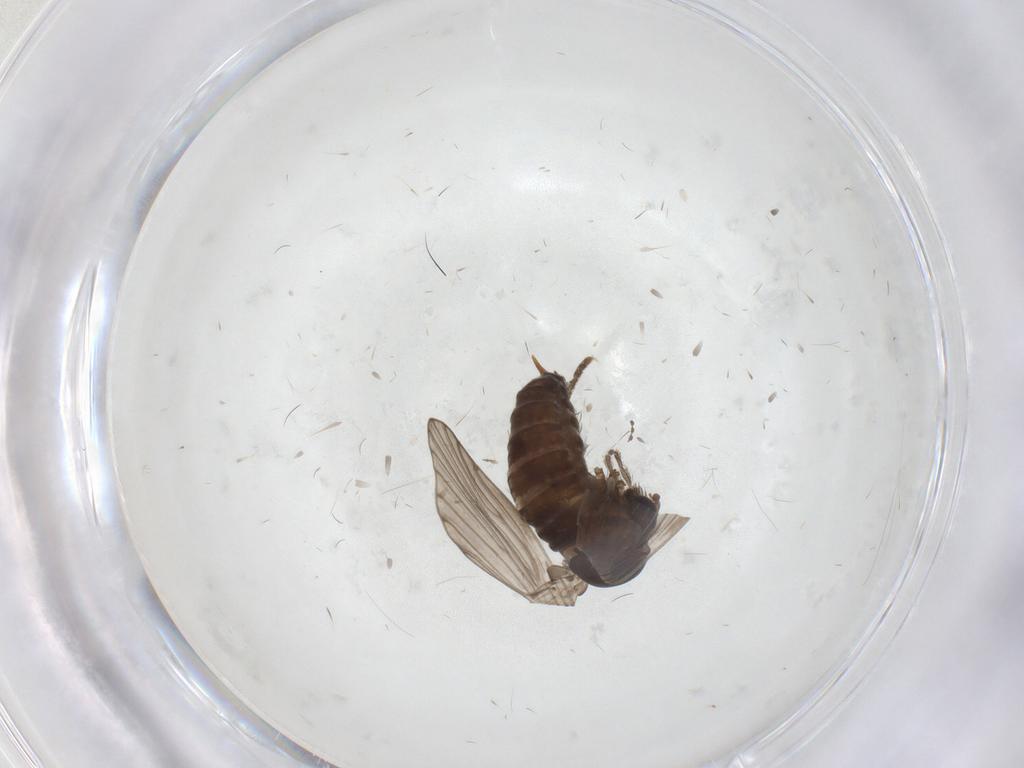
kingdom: Animalia
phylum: Arthropoda
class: Insecta
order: Diptera
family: Psychodidae
